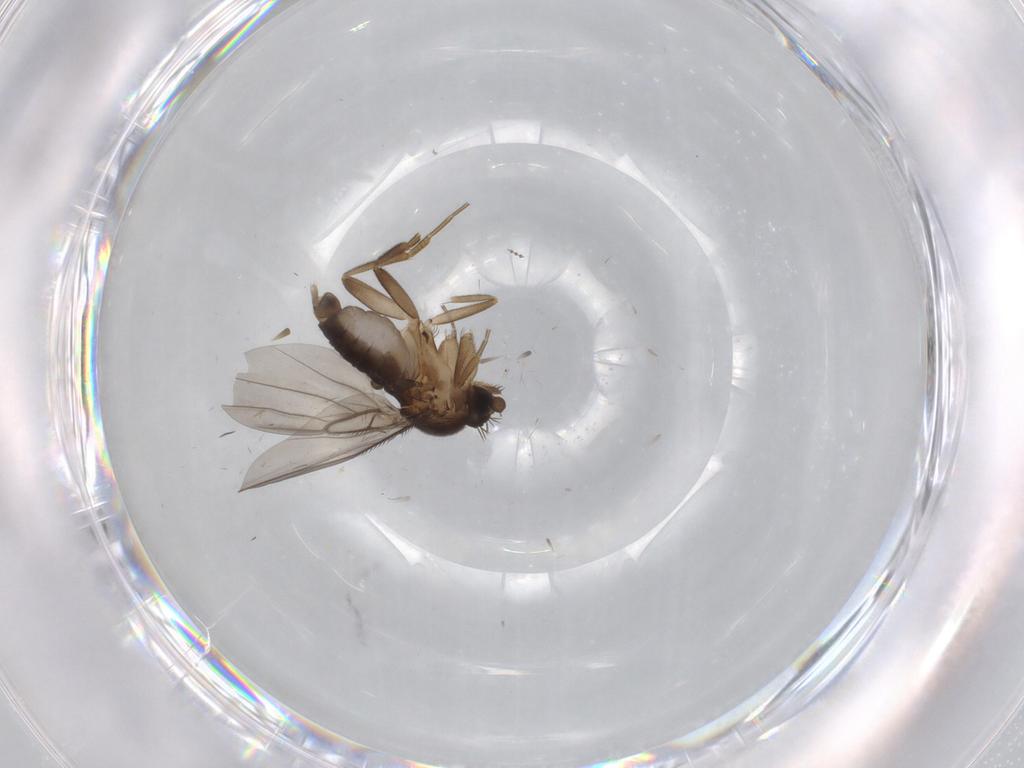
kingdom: Animalia
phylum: Arthropoda
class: Insecta
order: Diptera
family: Phoridae
